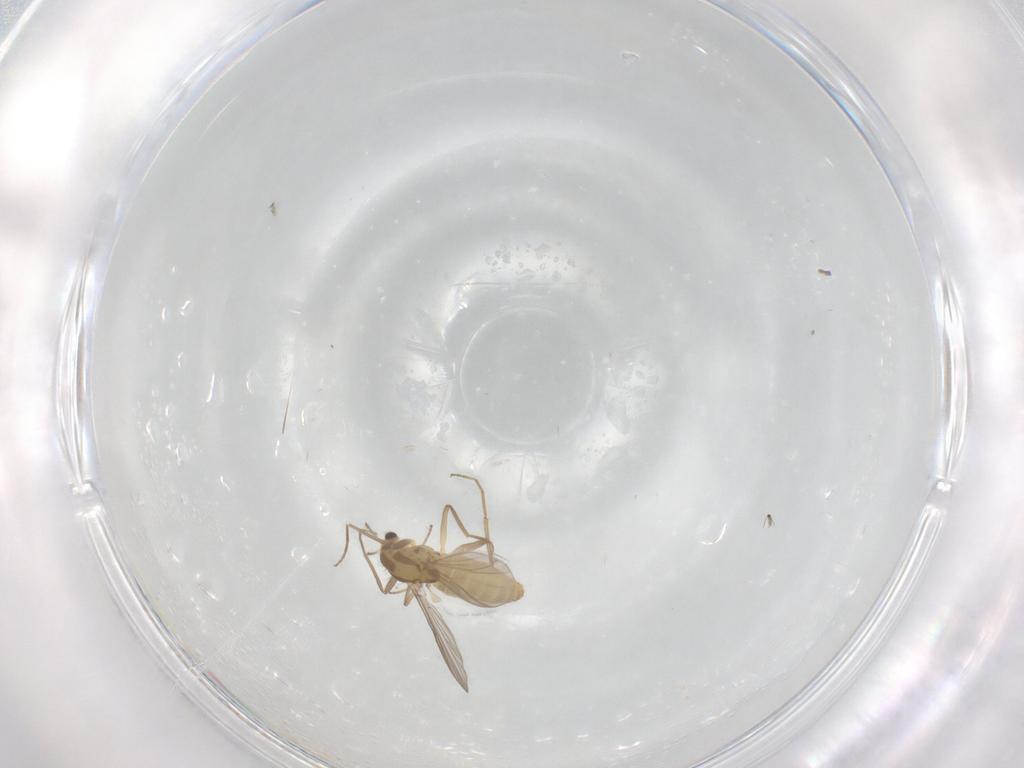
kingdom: Animalia
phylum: Arthropoda
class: Insecta
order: Diptera
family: Chironomidae
